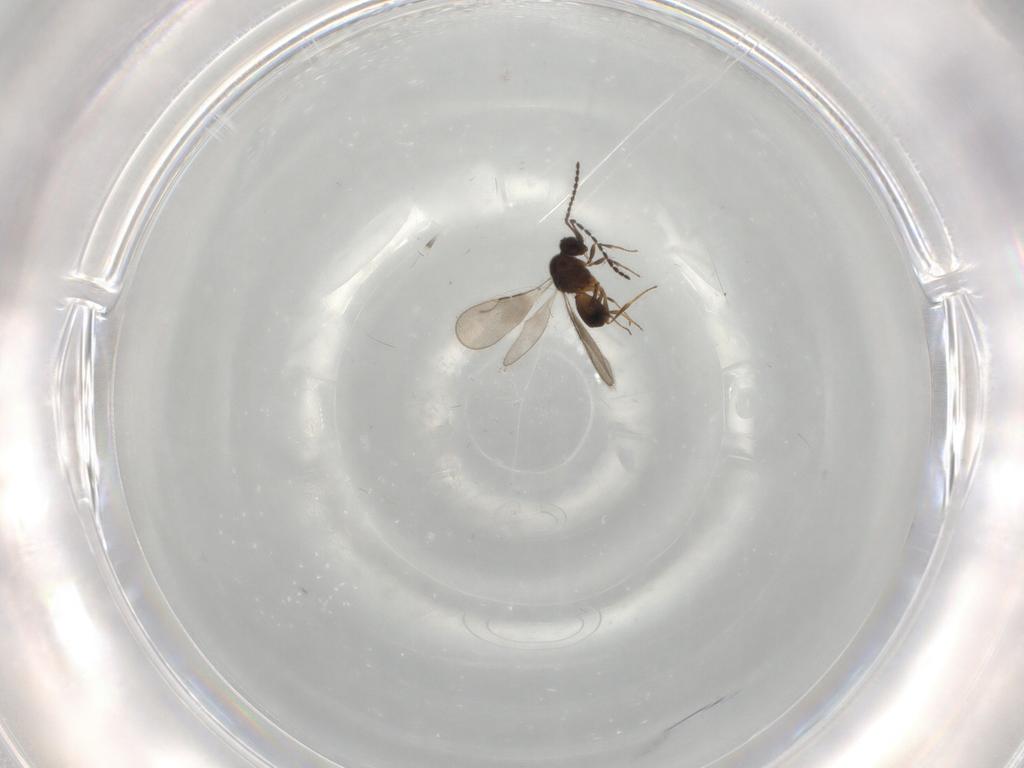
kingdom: Animalia
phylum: Arthropoda
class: Insecta
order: Hymenoptera
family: Ceraphronidae
